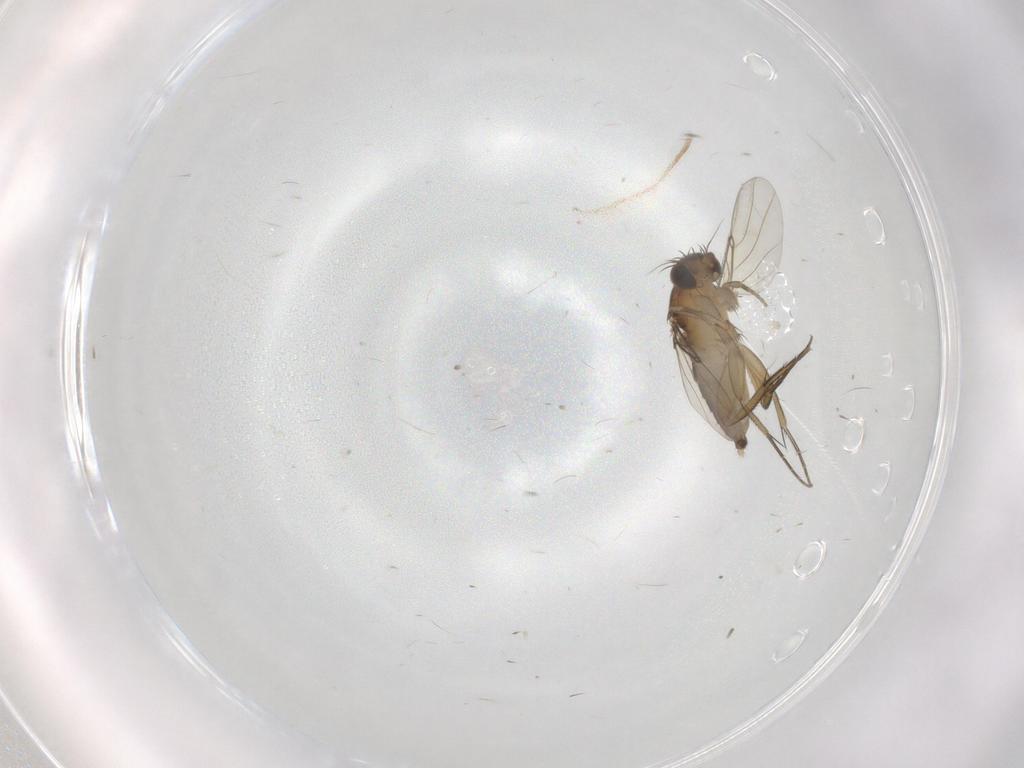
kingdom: Animalia
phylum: Arthropoda
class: Insecta
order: Diptera
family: Phoridae
